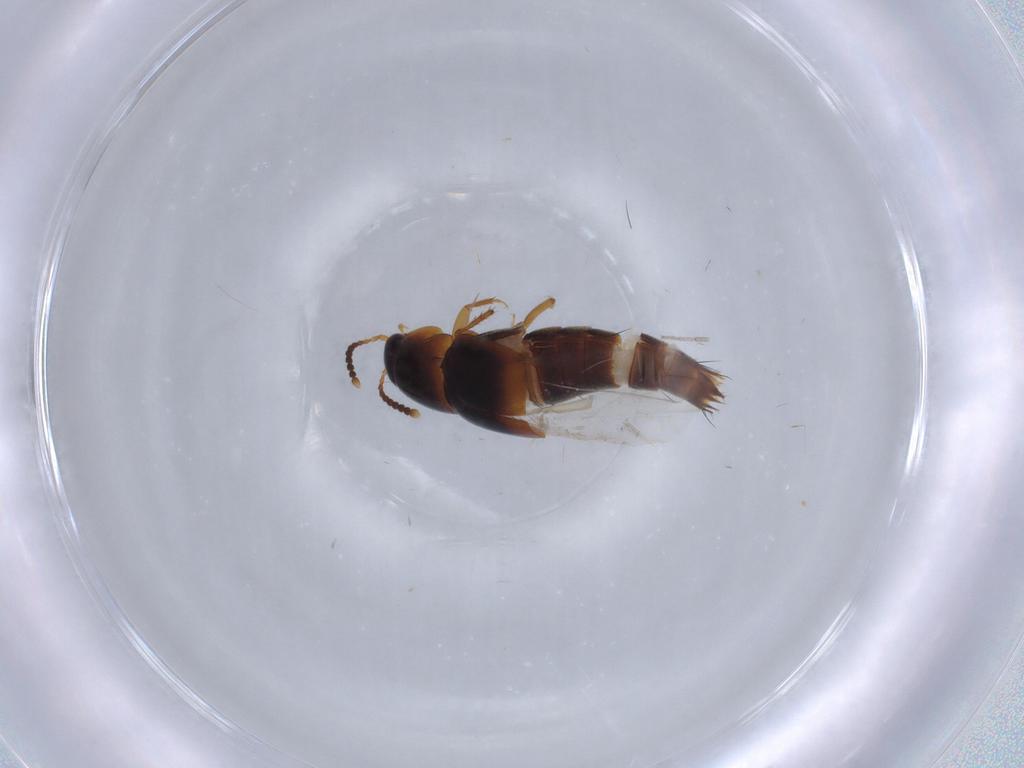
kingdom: Animalia
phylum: Arthropoda
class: Insecta
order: Coleoptera
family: Staphylinidae
